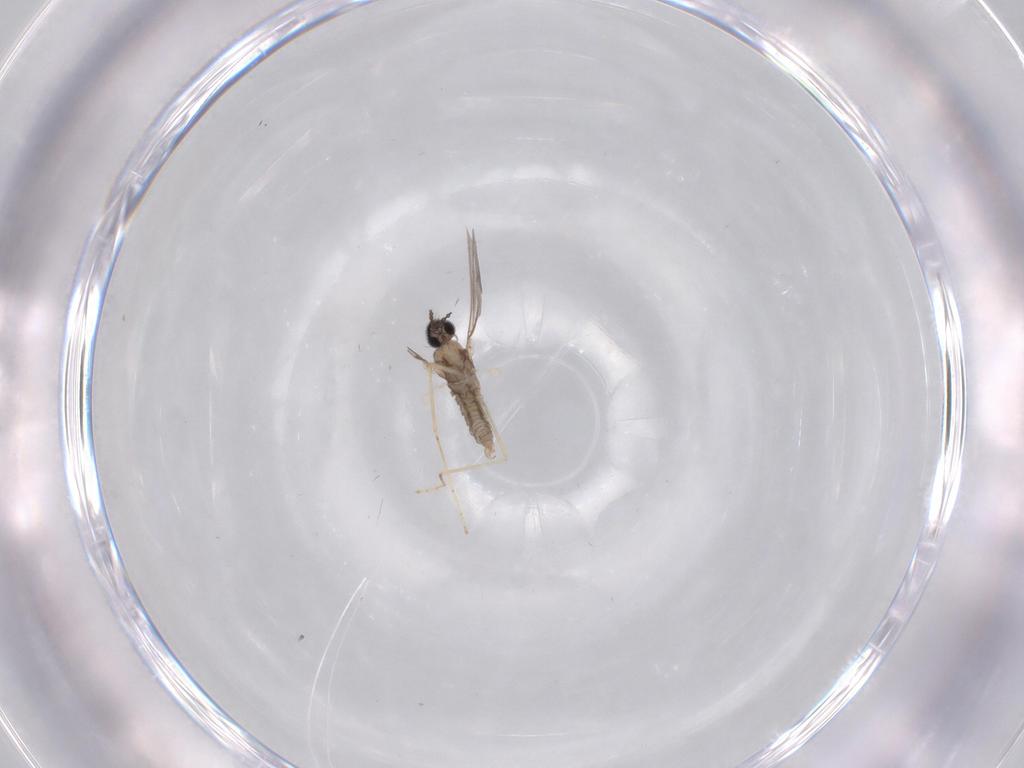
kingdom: Animalia
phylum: Arthropoda
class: Insecta
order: Diptera
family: Cecidomyiidae
